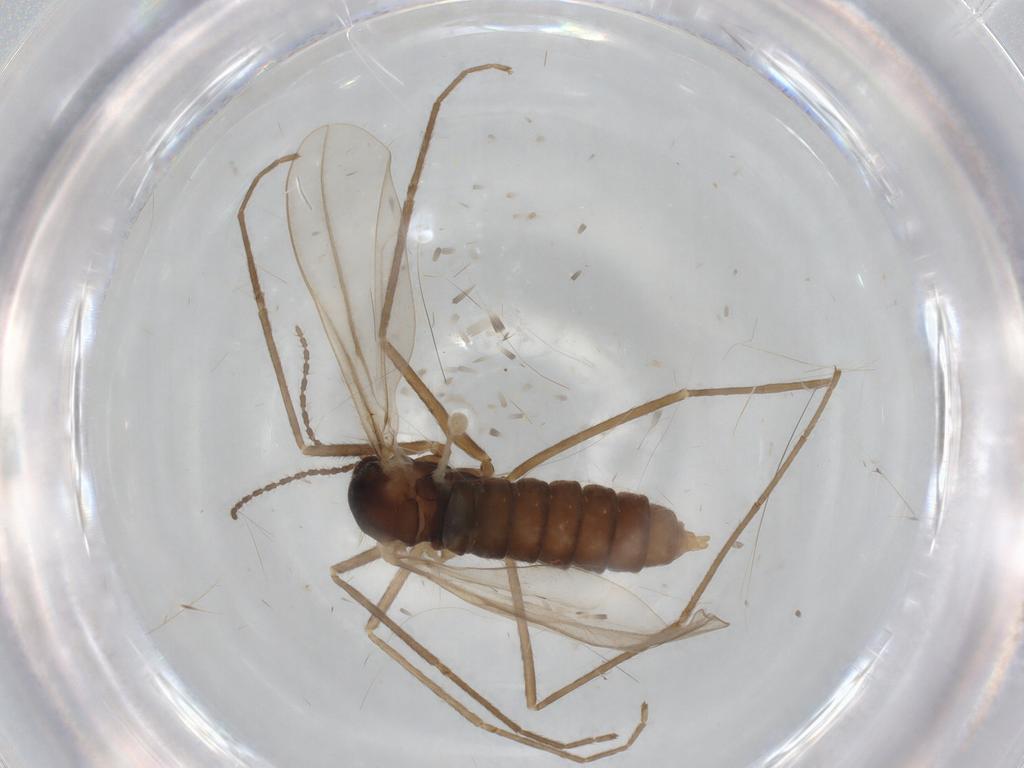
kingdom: Animalia
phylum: Arthropoda
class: Insecta
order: Diptera
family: Cecidomyiidae
